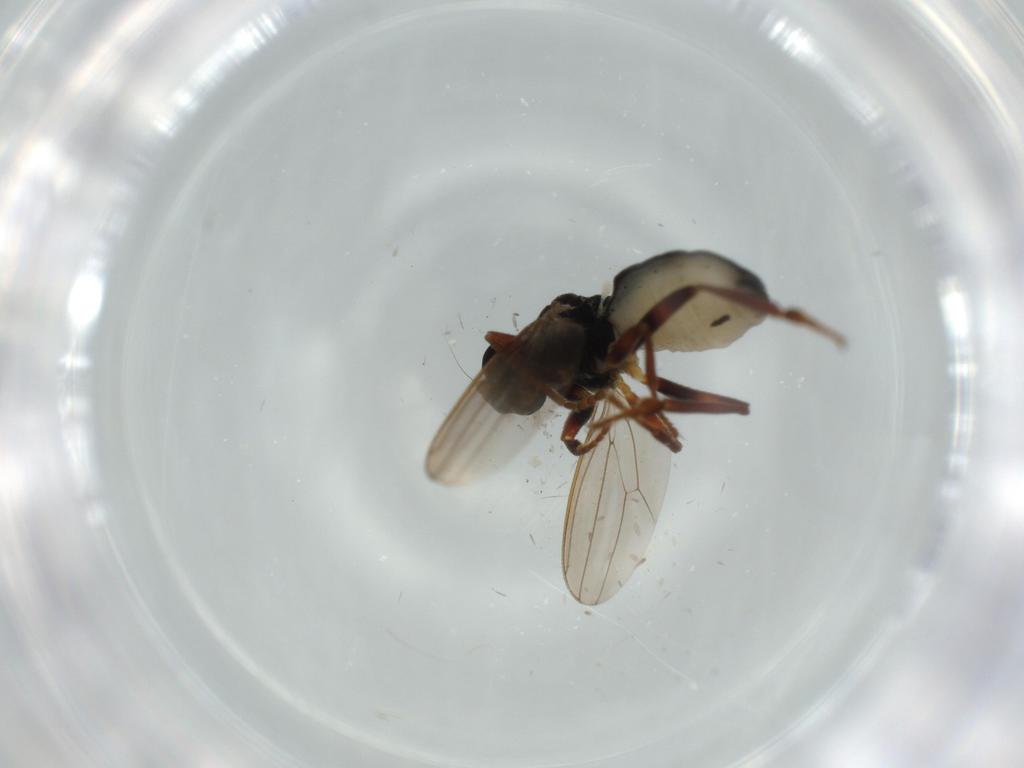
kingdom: Animalia
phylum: Arthropoda
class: Insecta
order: Diptera
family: Sphaeroceridae
